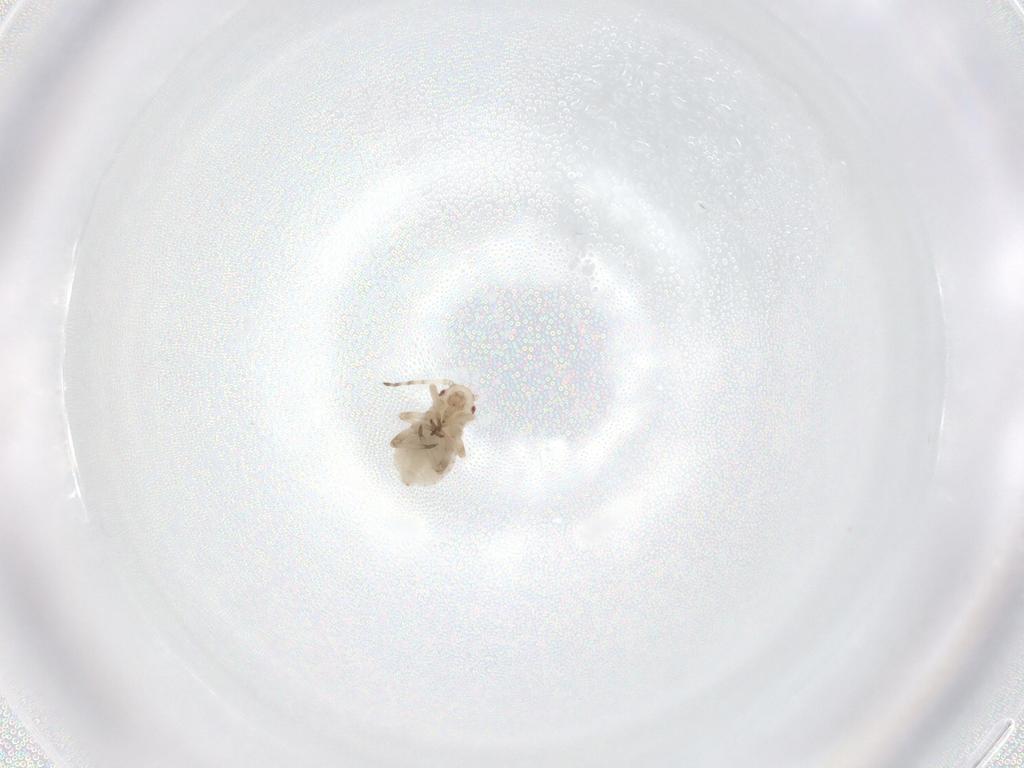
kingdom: Animalia
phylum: Arthropoda
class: Insecta
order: Hemiptera
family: Aphididae
